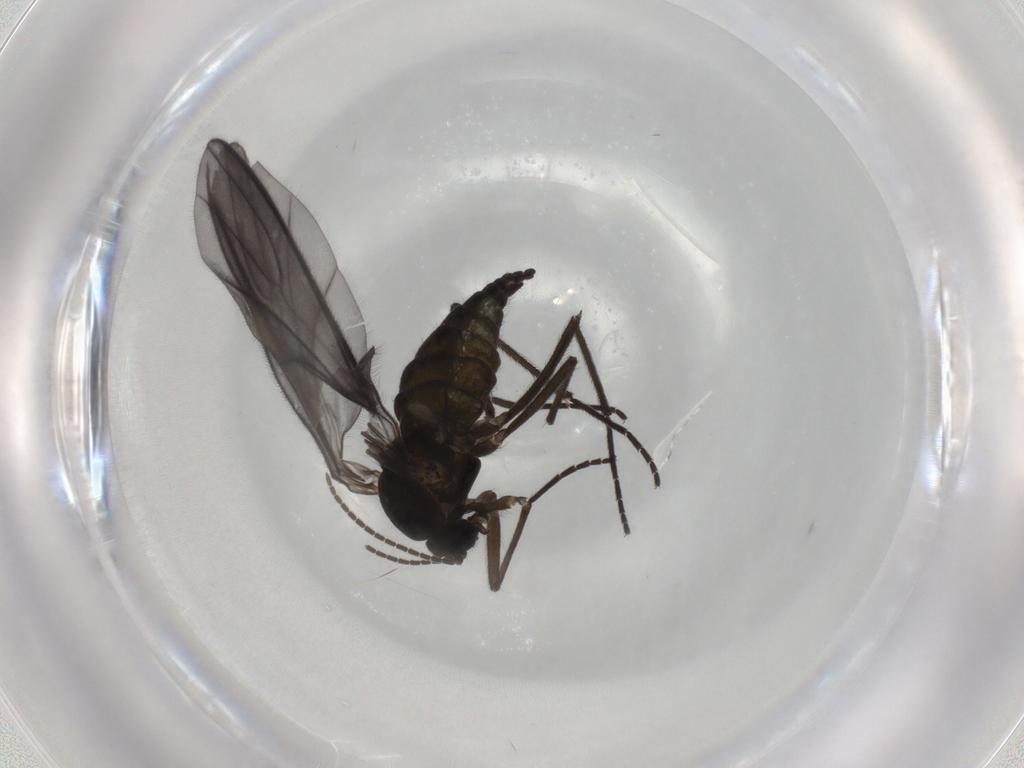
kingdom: Animalia
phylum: Arthropoda
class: Insecta
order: Diptera
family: Sciaridae
